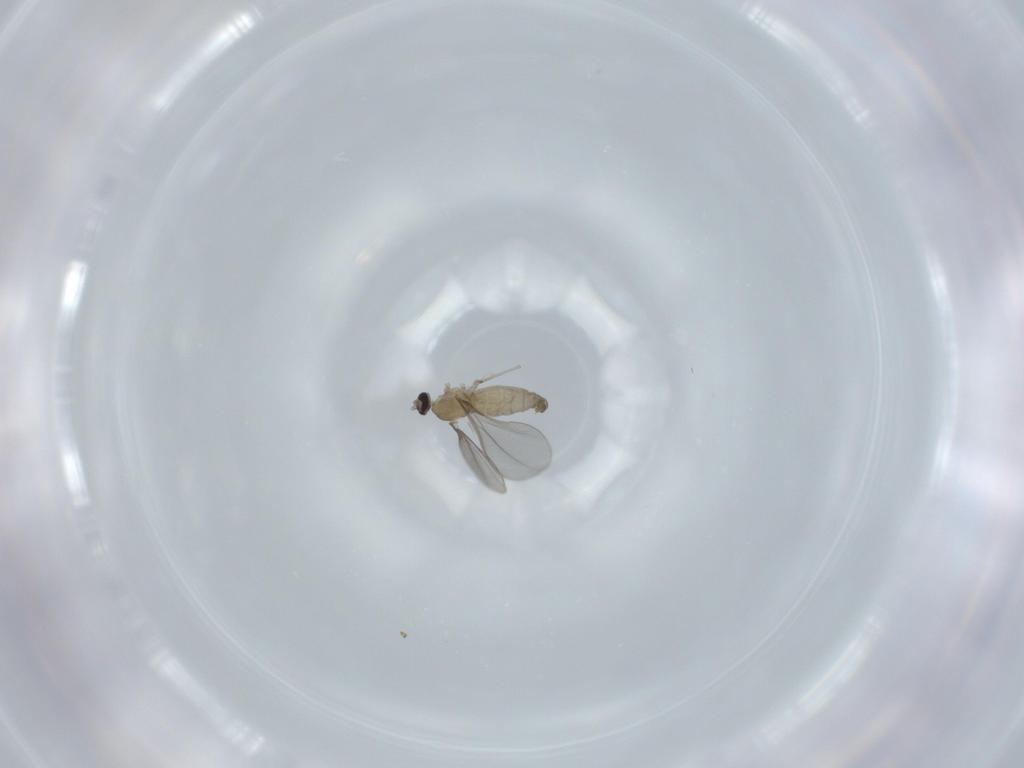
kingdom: Animalia
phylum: Arthropoda
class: Insecta
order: Diptera
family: Cecidomyiidae
